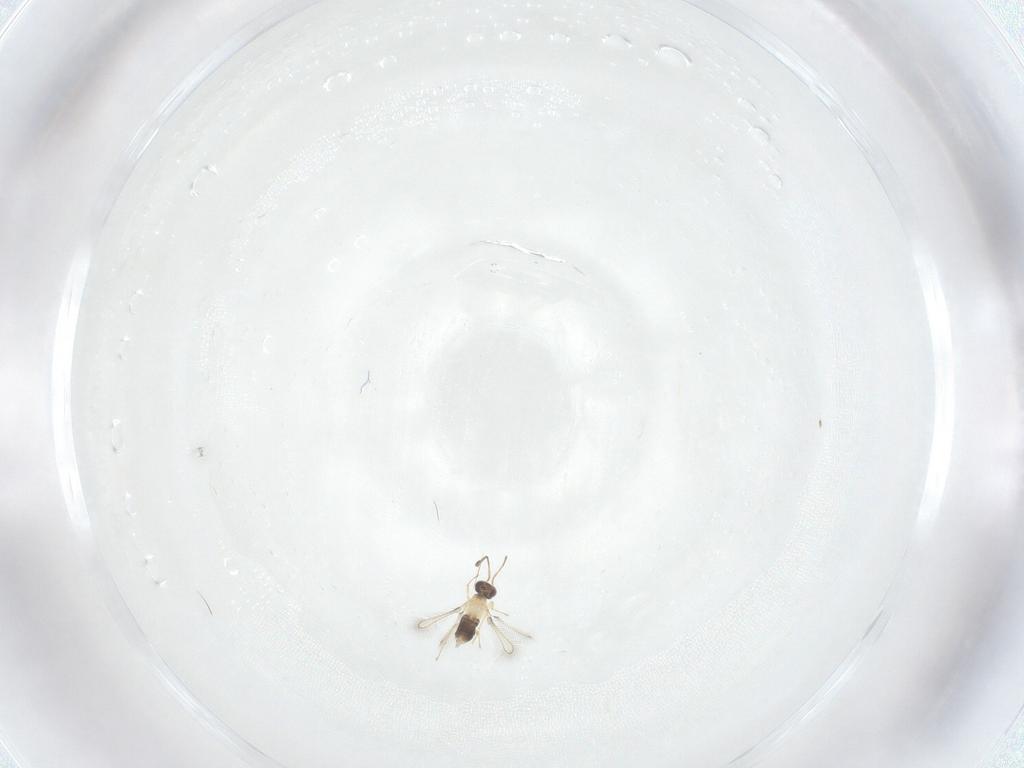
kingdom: Animalia
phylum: Arthropoda
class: Insecta
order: Hymenoptera
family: Mymaridae
